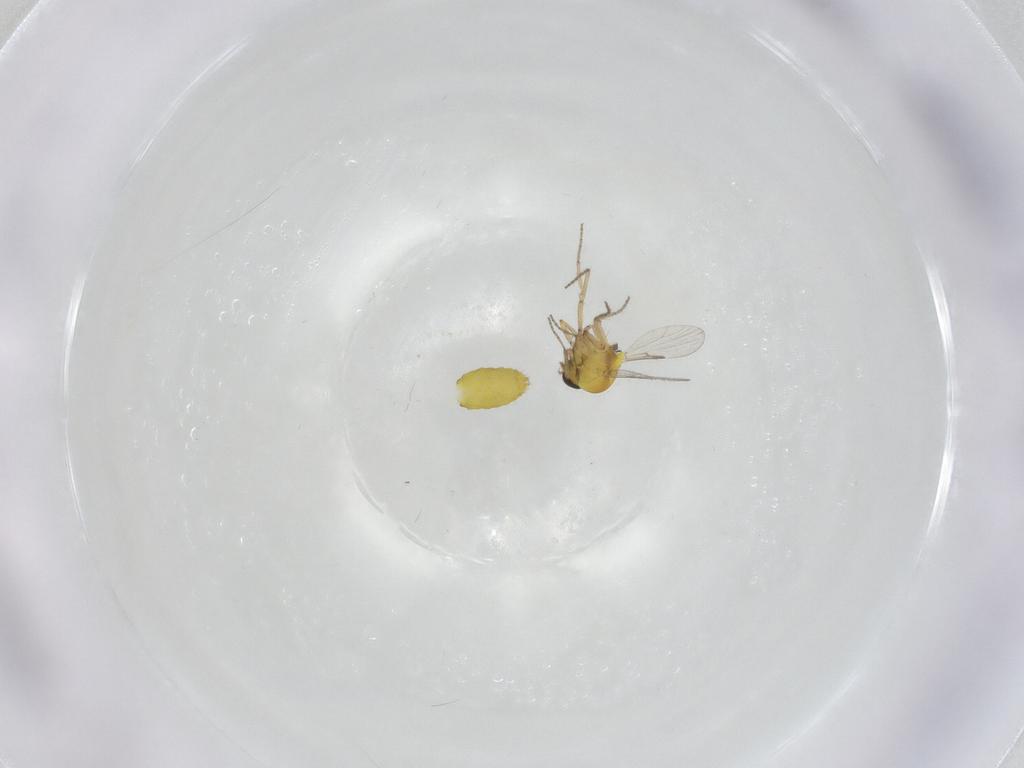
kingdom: Animalia
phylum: Arthropoda
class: Insecta
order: Diptera
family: Ceratopogonidae
